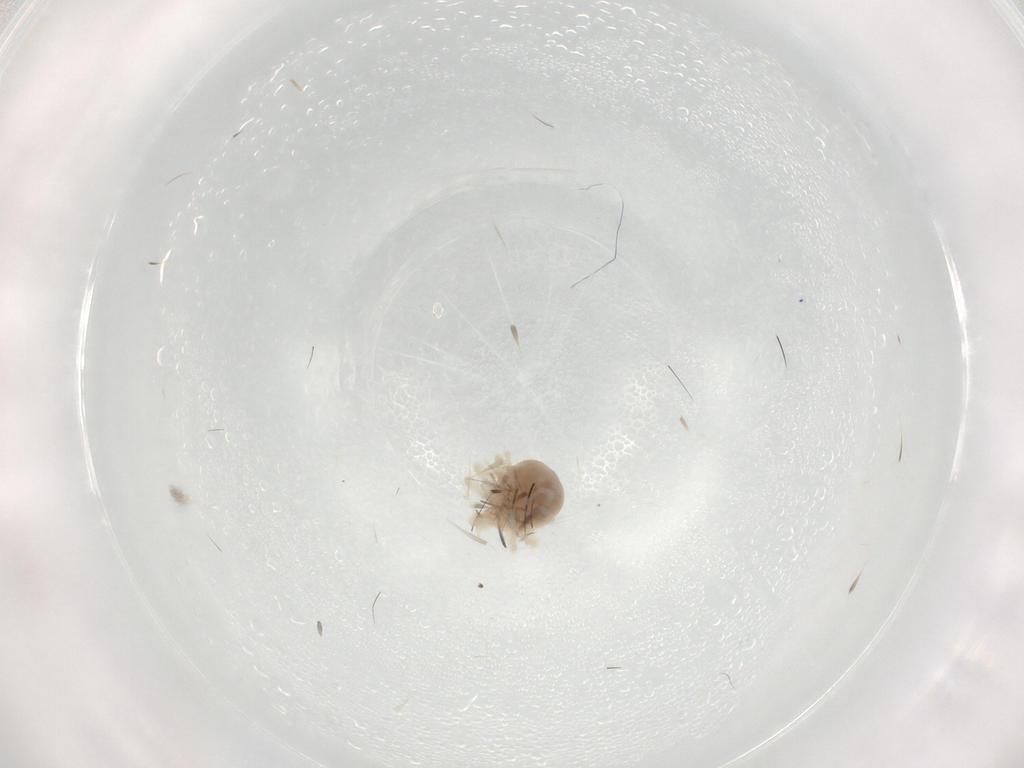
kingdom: Animalia
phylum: Arthropoda
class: Arachnida
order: Trombidiformes
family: Anystidae
